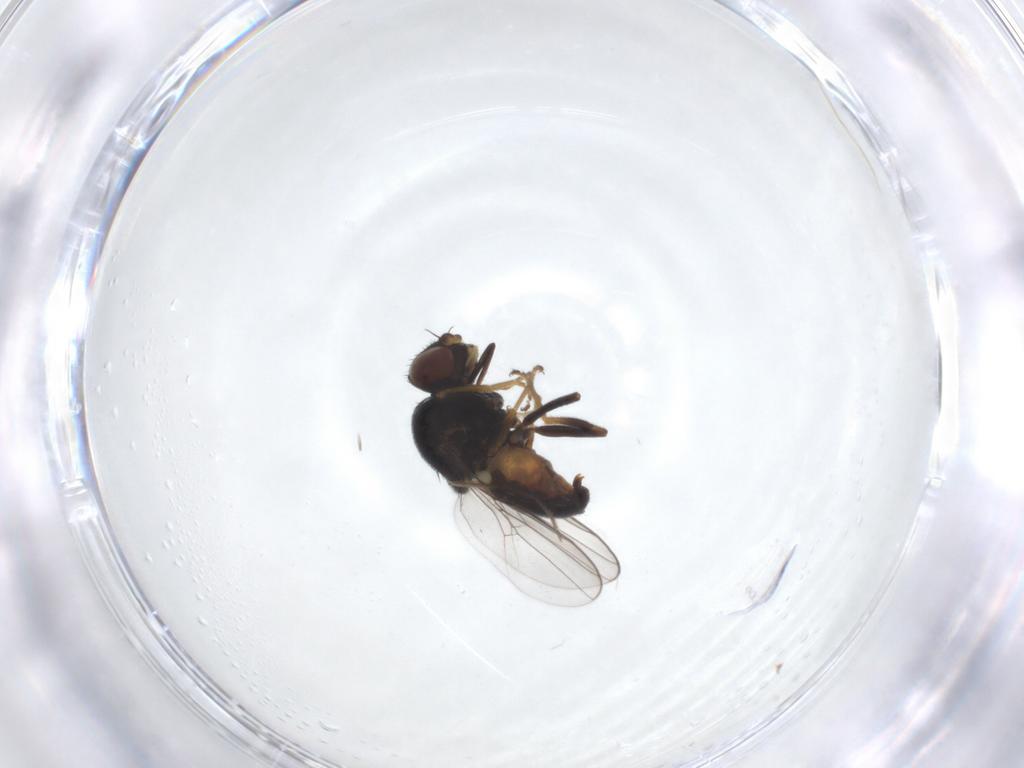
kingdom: Animalia
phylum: Arthropoda
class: Insecta
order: Diptera
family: Chloropidae
